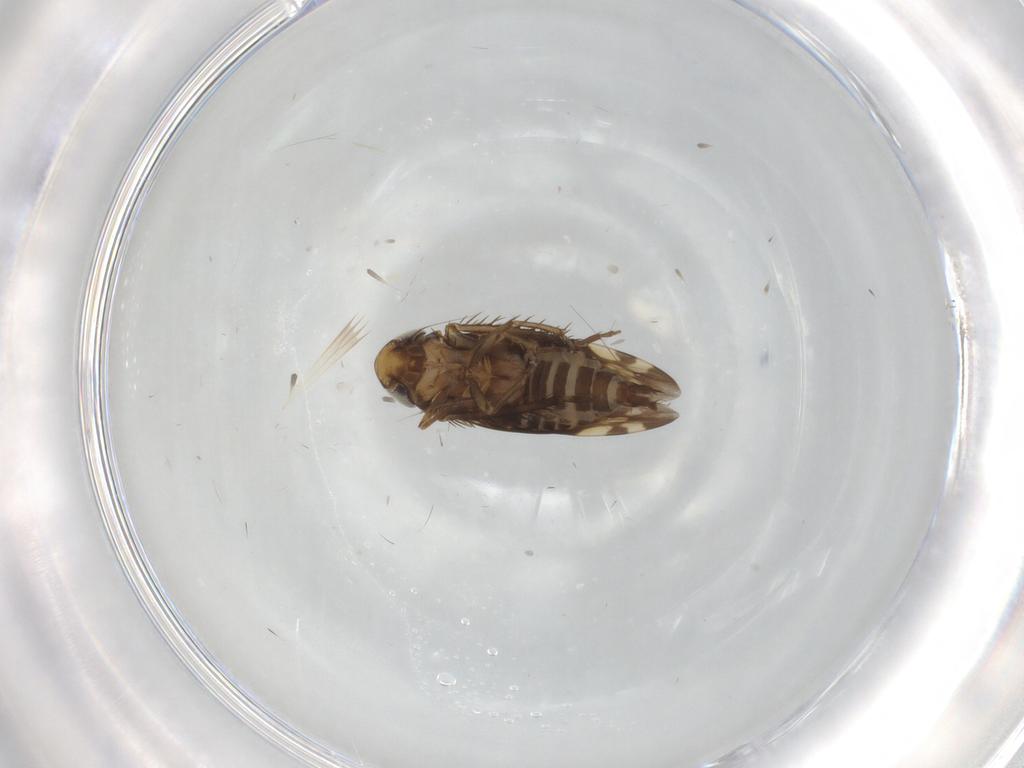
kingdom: Animalia
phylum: Arthropoda
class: Insecta
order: Hemiptera
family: Cicadellidae
